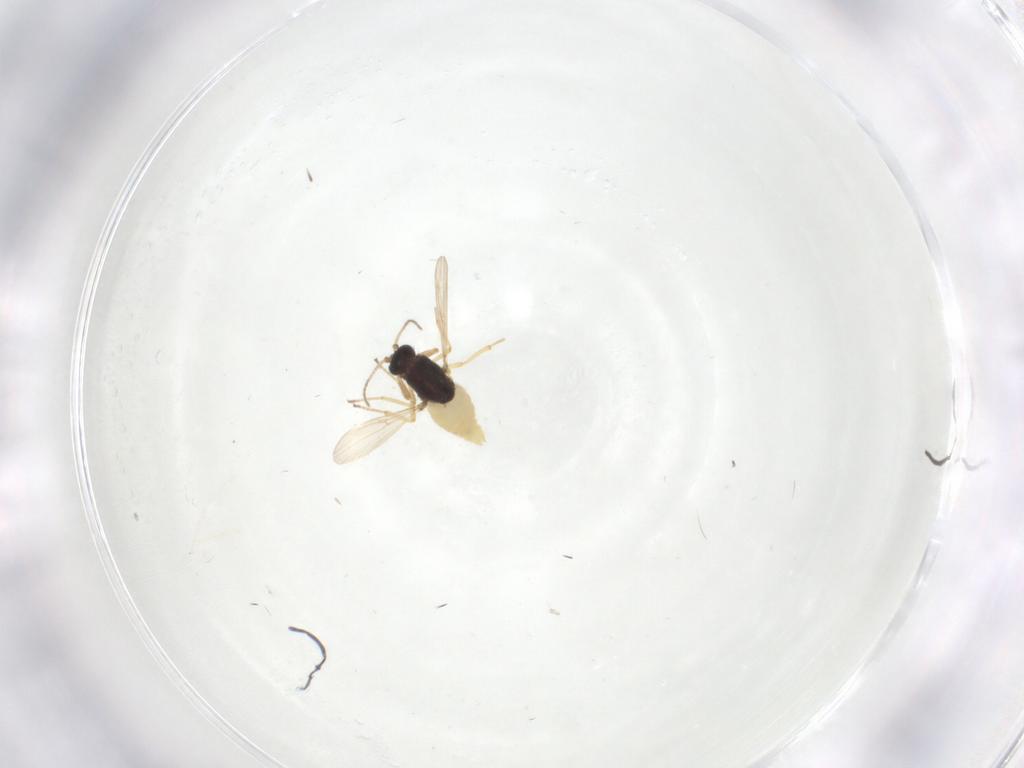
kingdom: Animalia
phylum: Arthropoda
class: Insecta
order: Diptera
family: Ceratopogonidae
